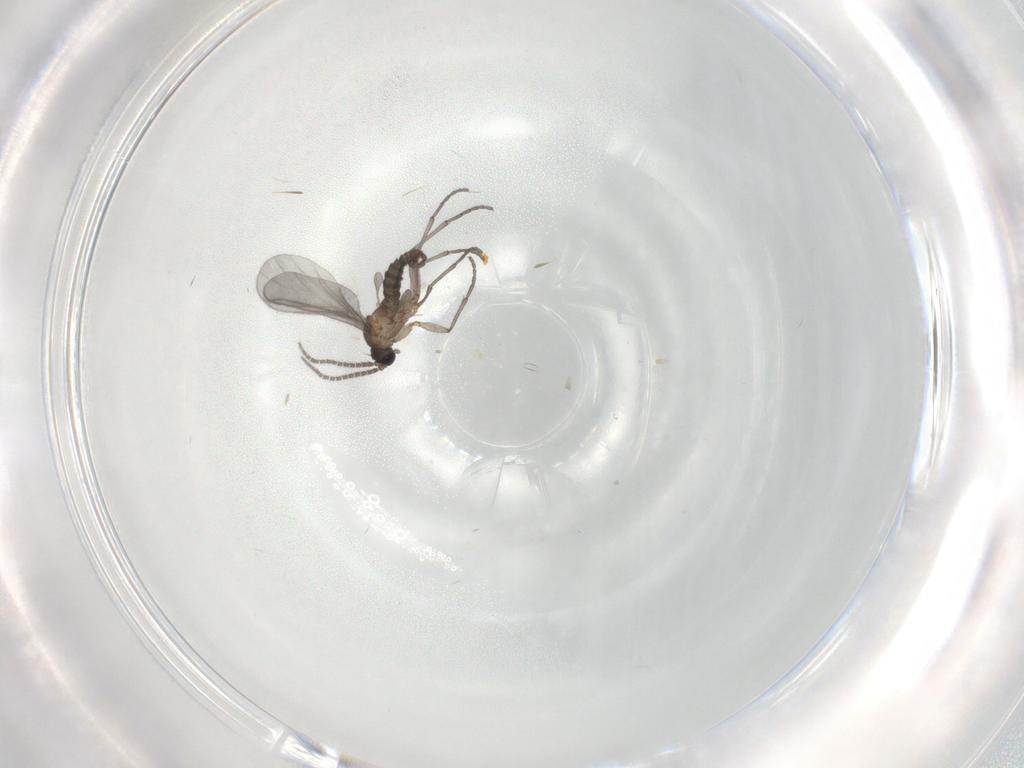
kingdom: Animalia
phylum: Arthropoda
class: Insecta
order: Diptera
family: Sciaridae
